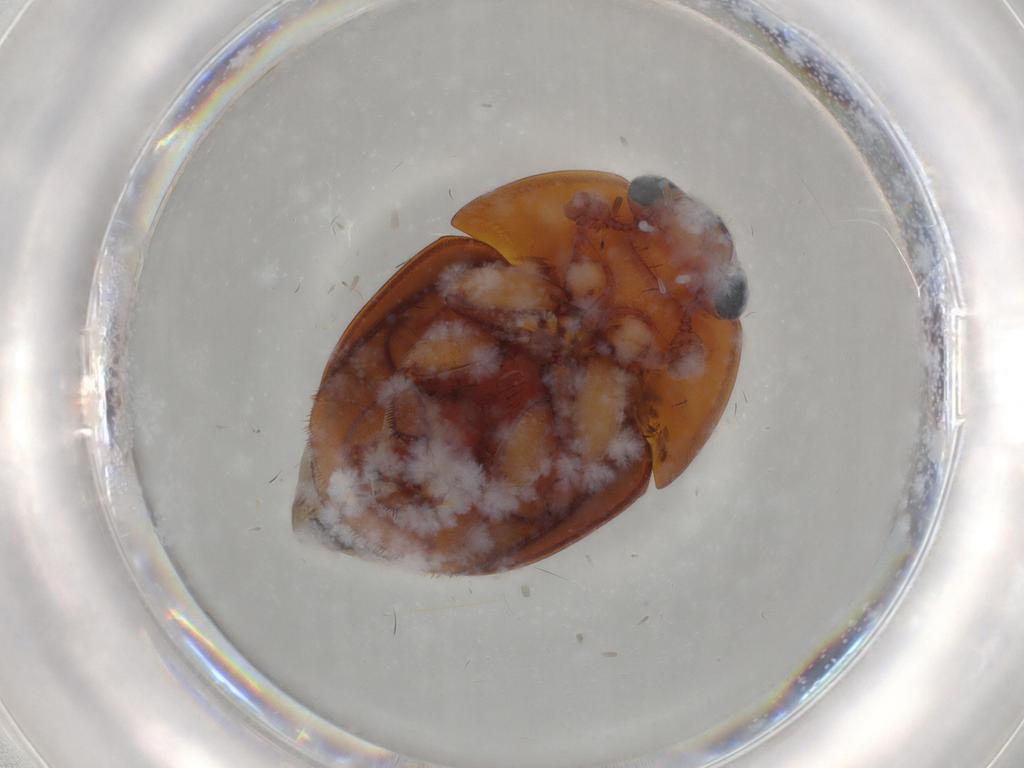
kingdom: Animalia
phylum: Arthropoda
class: Insecta
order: Coleoptera
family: Nitidulidae
